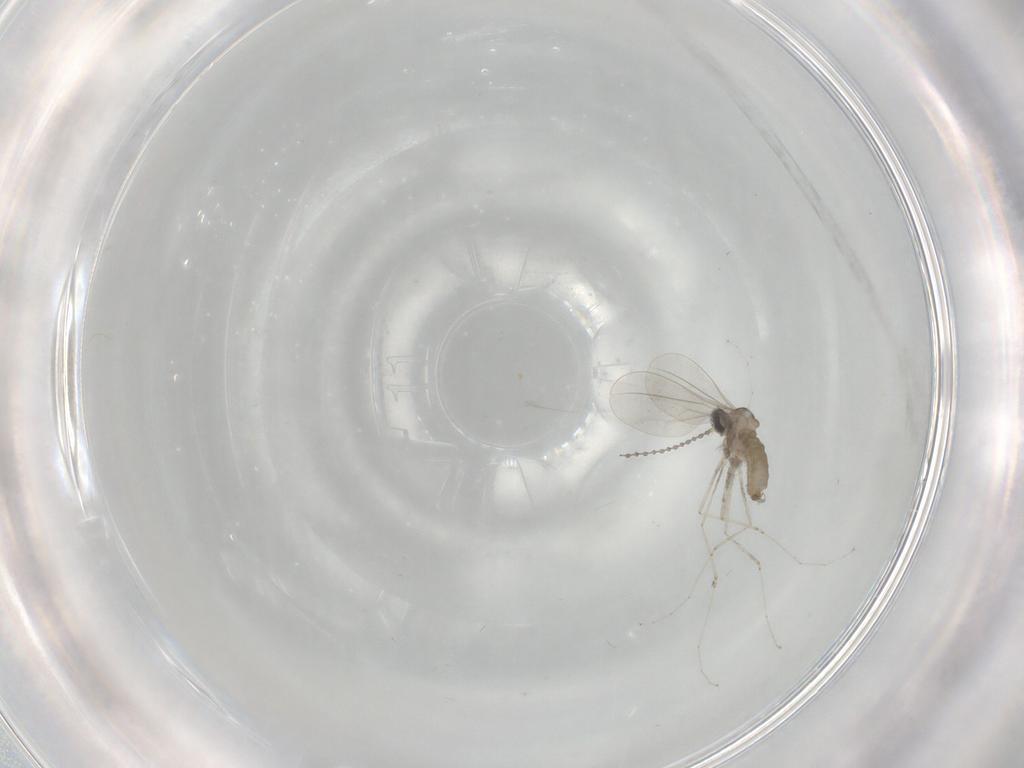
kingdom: Animalia
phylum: Arthropoda
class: Insecta
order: Diptera
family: Cecidomyiidae
